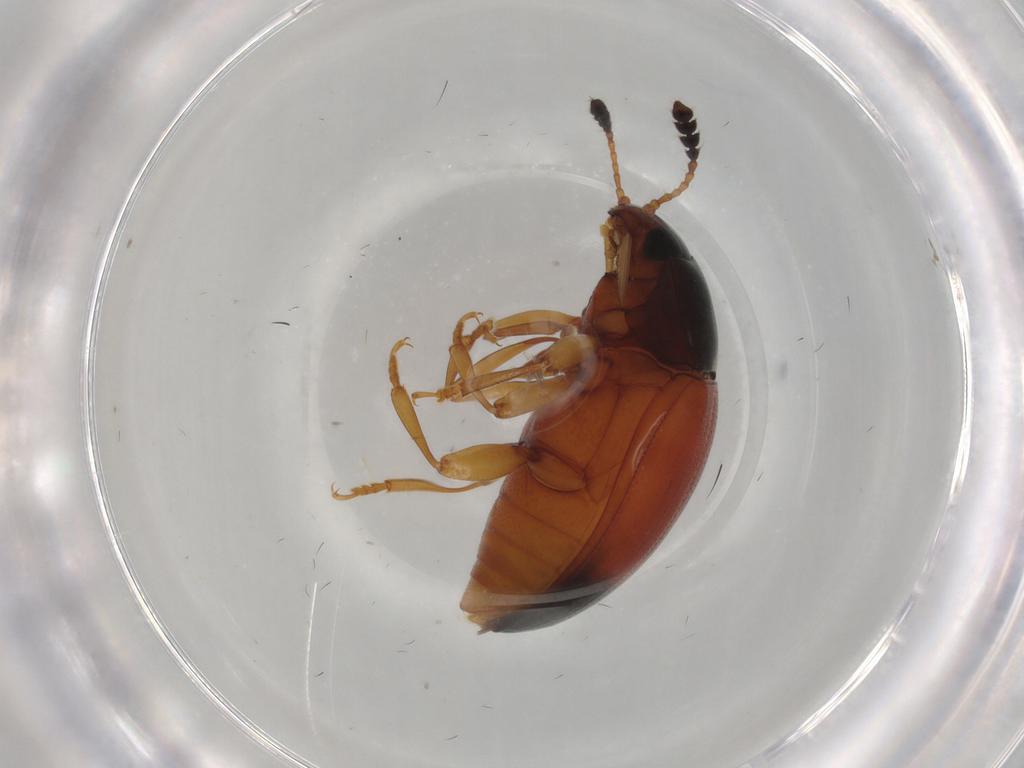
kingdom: Animalia
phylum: Arthropoda
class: Insecta
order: Coleoptera
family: Erotylidae
